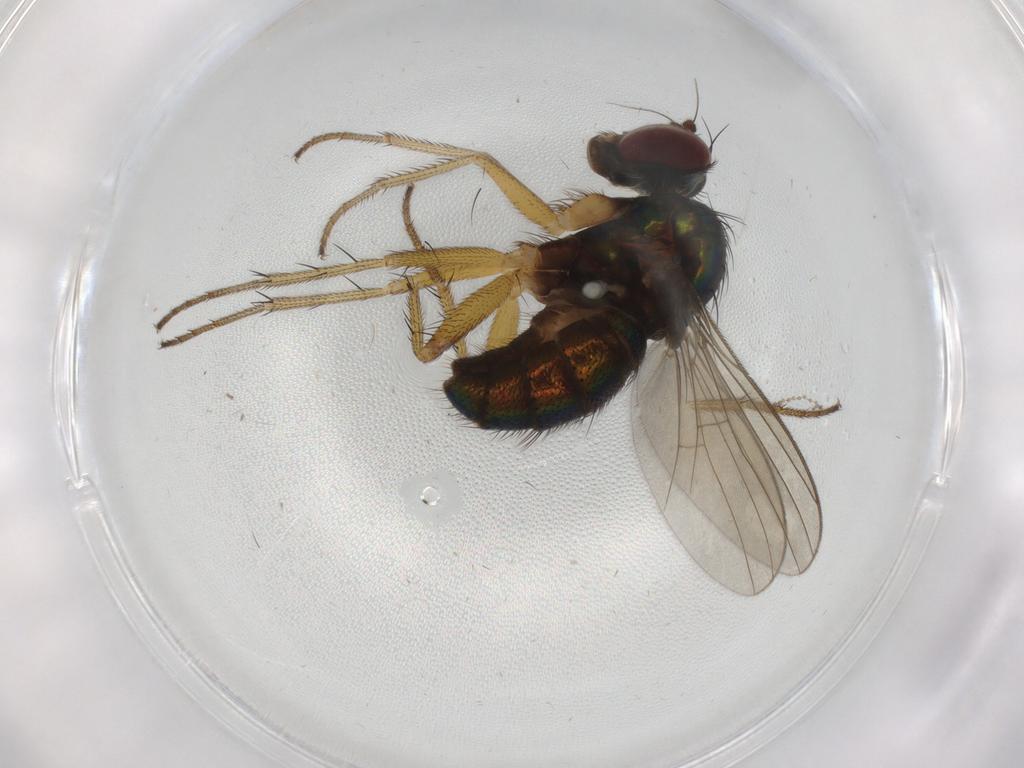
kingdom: Animalia
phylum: Arthropoda
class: Insecta
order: Diptera
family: Dolichopodidae
